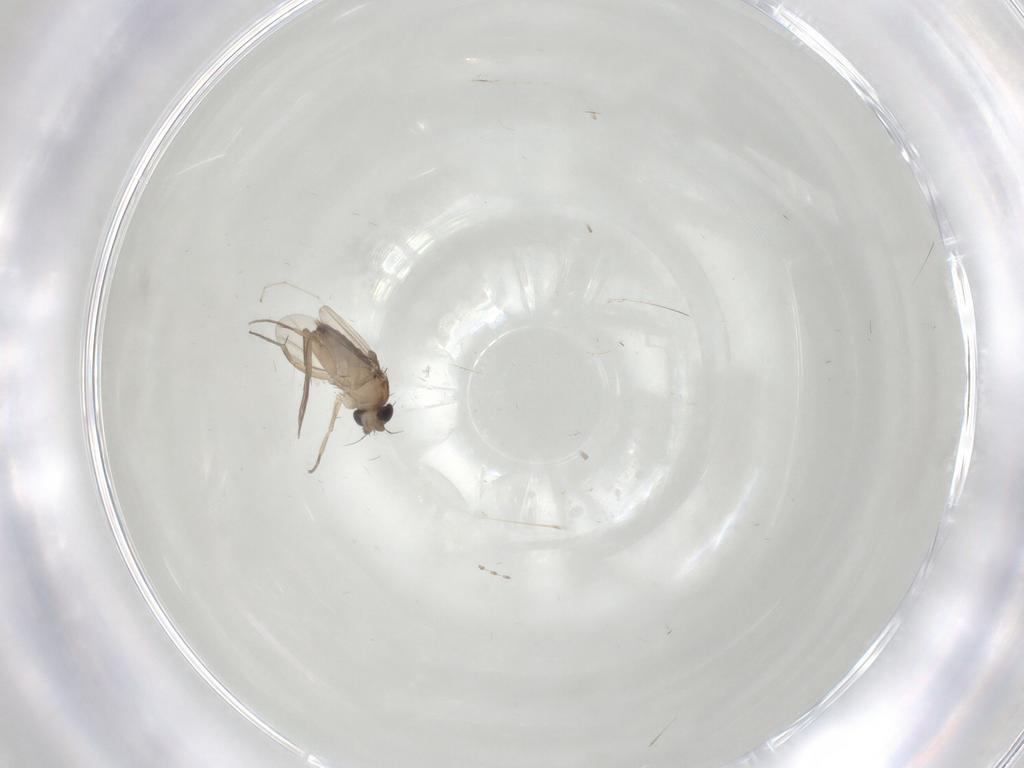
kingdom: Animalia
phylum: Arthropoda
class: Insecta
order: Diptera
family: Phoridae
